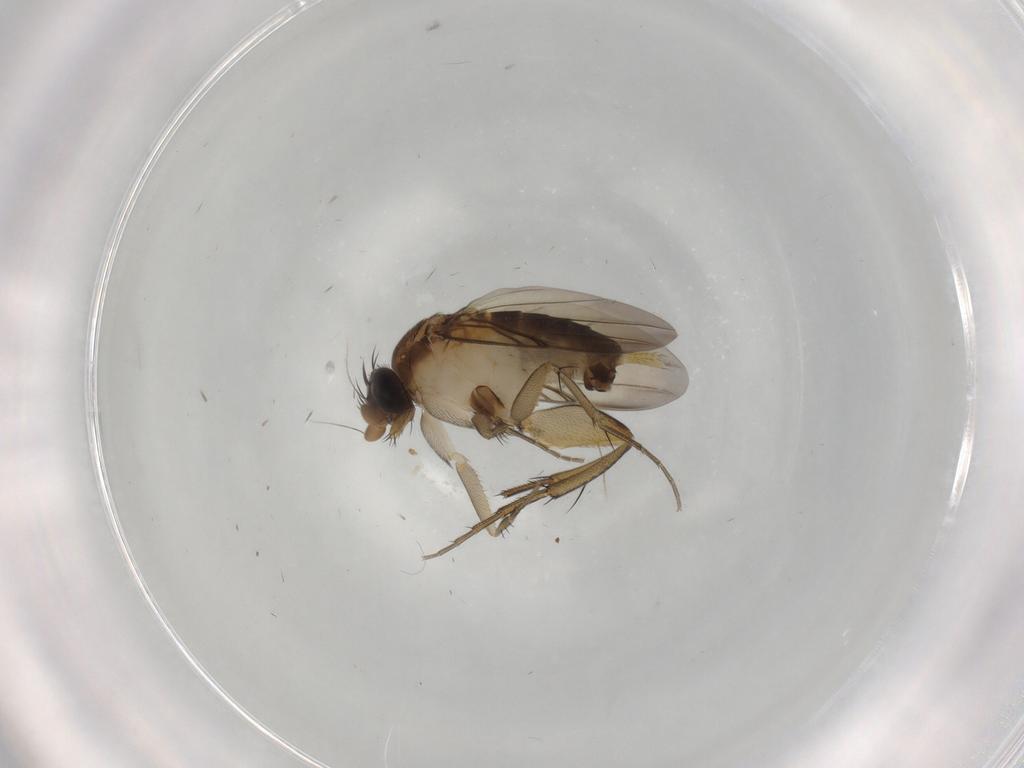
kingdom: Animalia
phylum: Arthropoda
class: Insecta
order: Diptera
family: Phoridae
